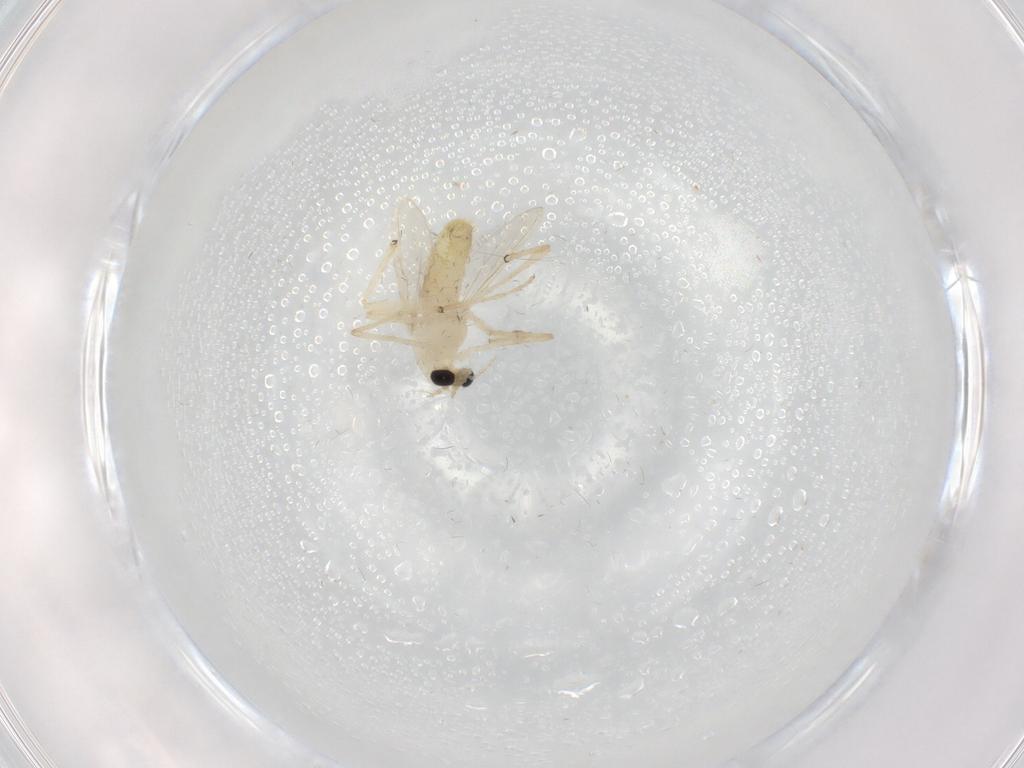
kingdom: Animalia
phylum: Arthropoda
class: Insecta
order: Diptera
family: Chironomidae
